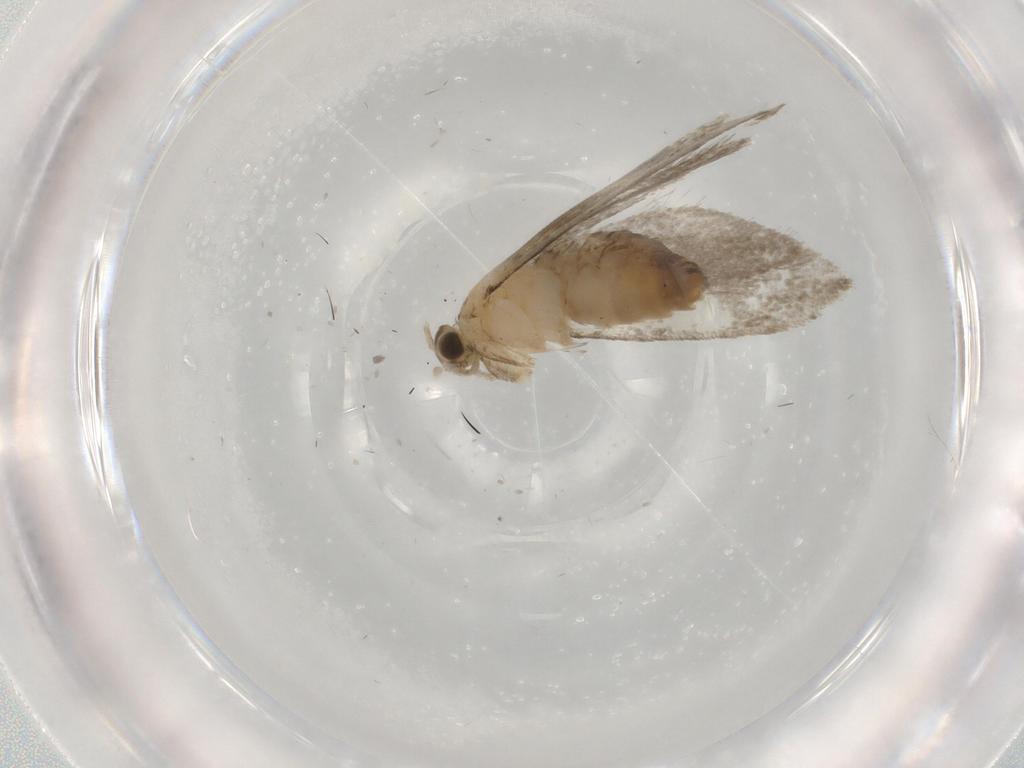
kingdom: Animalia
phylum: Arthropoda
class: Insecta
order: Lepidoptera
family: Tineidae
